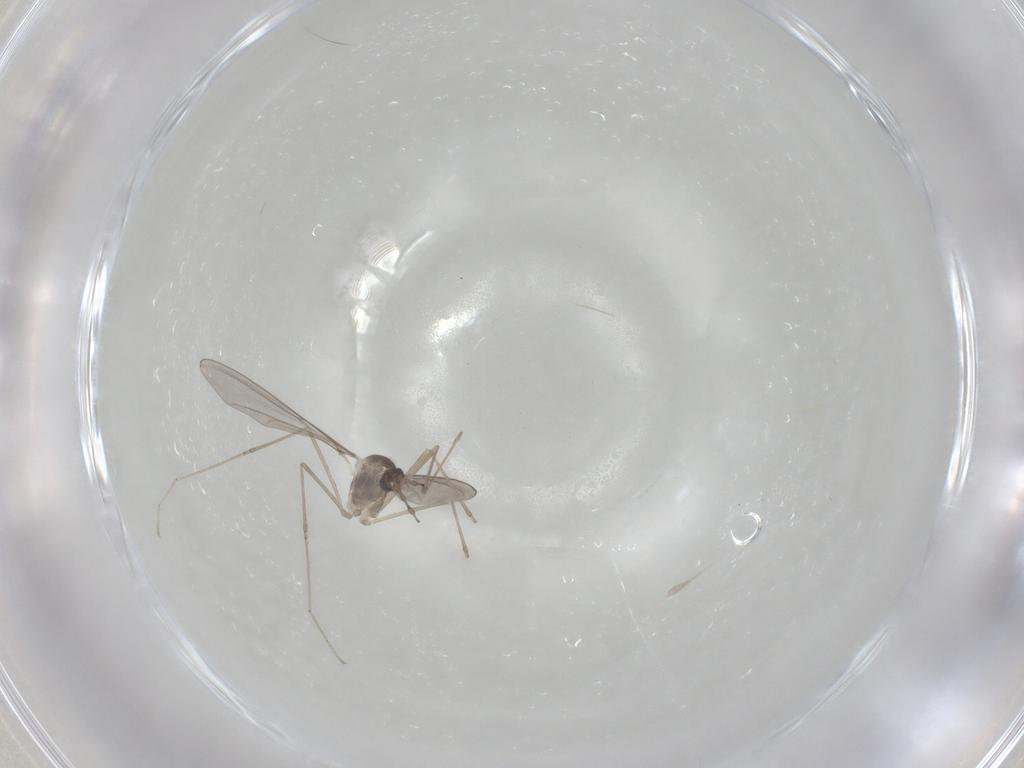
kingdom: Animalia
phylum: Arthropoda
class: Insecta
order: Diptera
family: Cecidomyiidae
